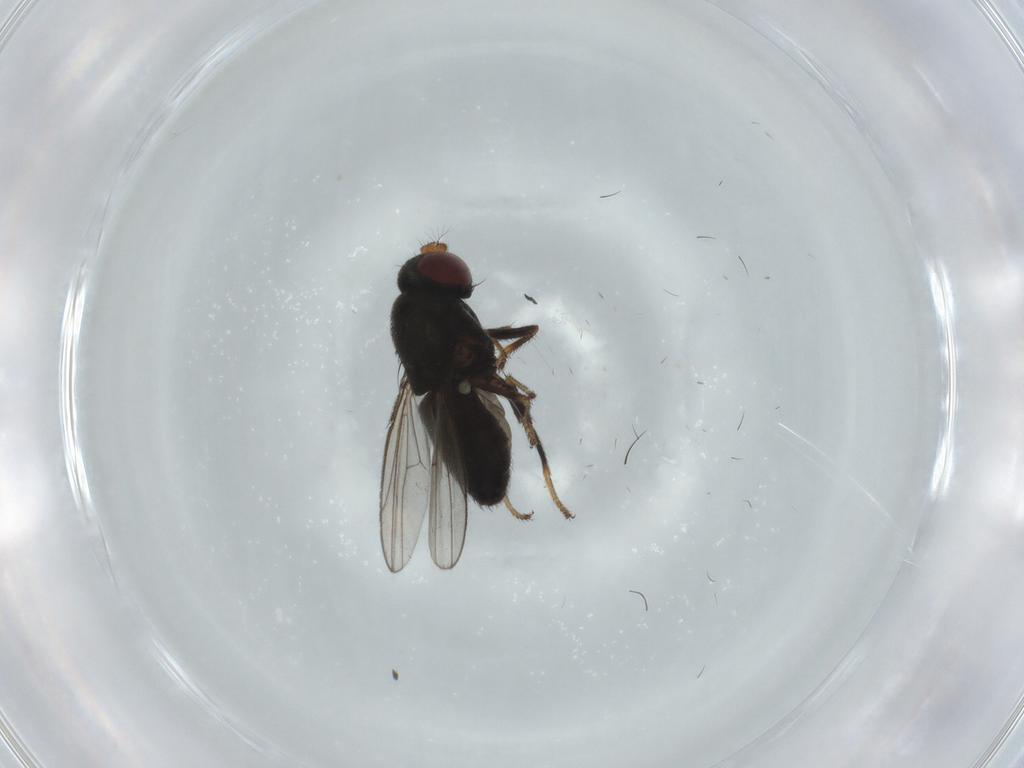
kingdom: Animalia
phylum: Arthropoda
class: Insecta
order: Diptera
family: Ephydridae
